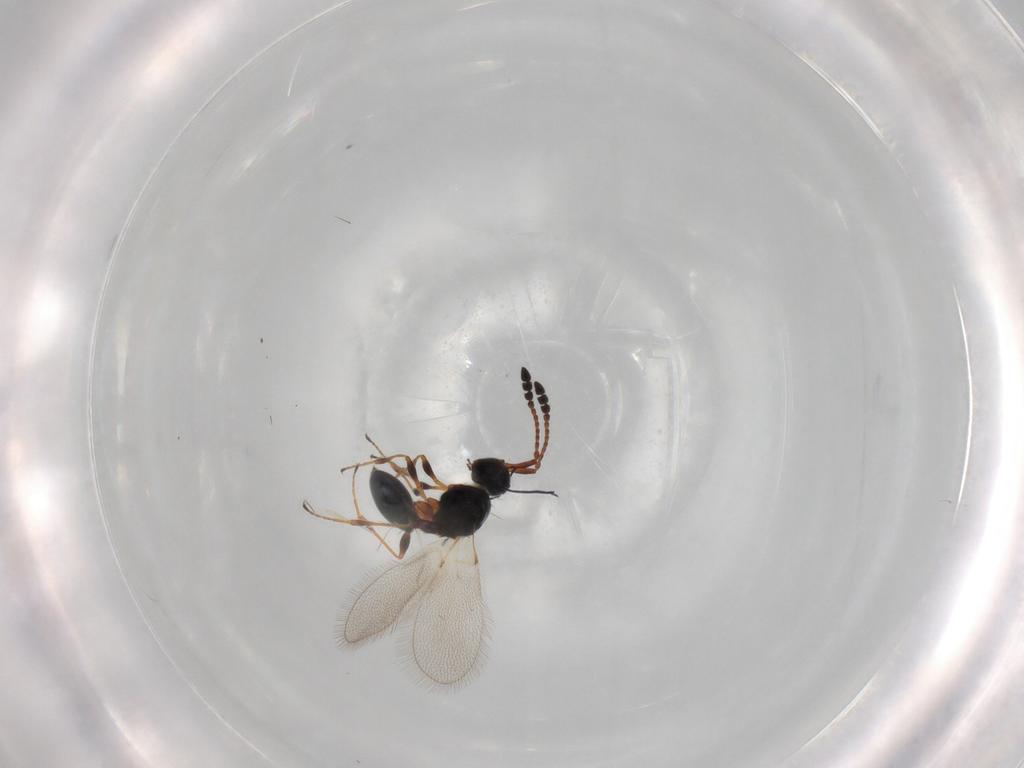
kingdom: Animalia
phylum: Arthropoda
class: Insecta
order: Hymenoptera
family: Diapriidae
